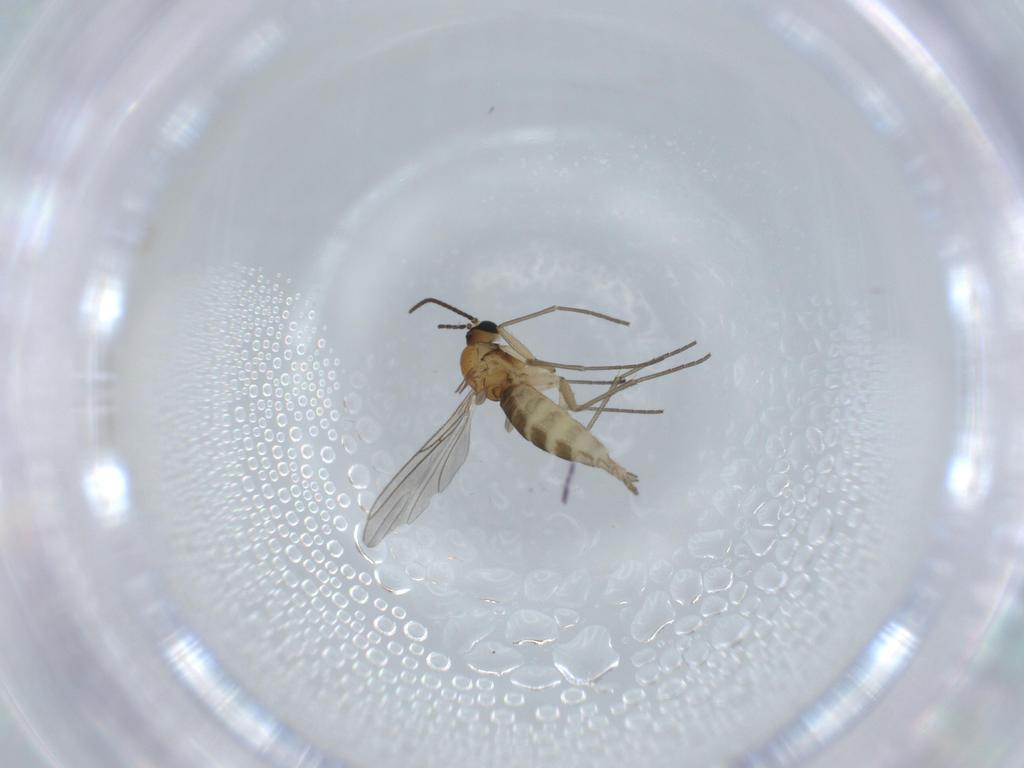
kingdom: Animalia
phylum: Arthropoda
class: Insecta
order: Diptera
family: Sciaridae
